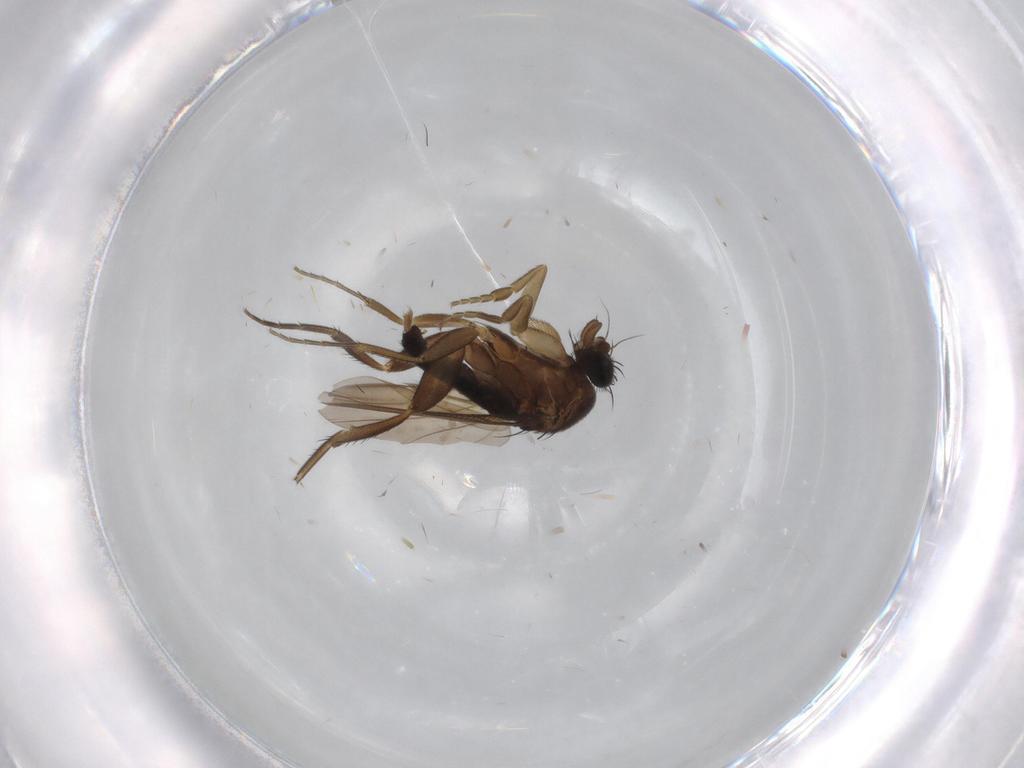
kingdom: Animalia
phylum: Arthropoda
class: Insecta
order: Diptera
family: Phoridae
